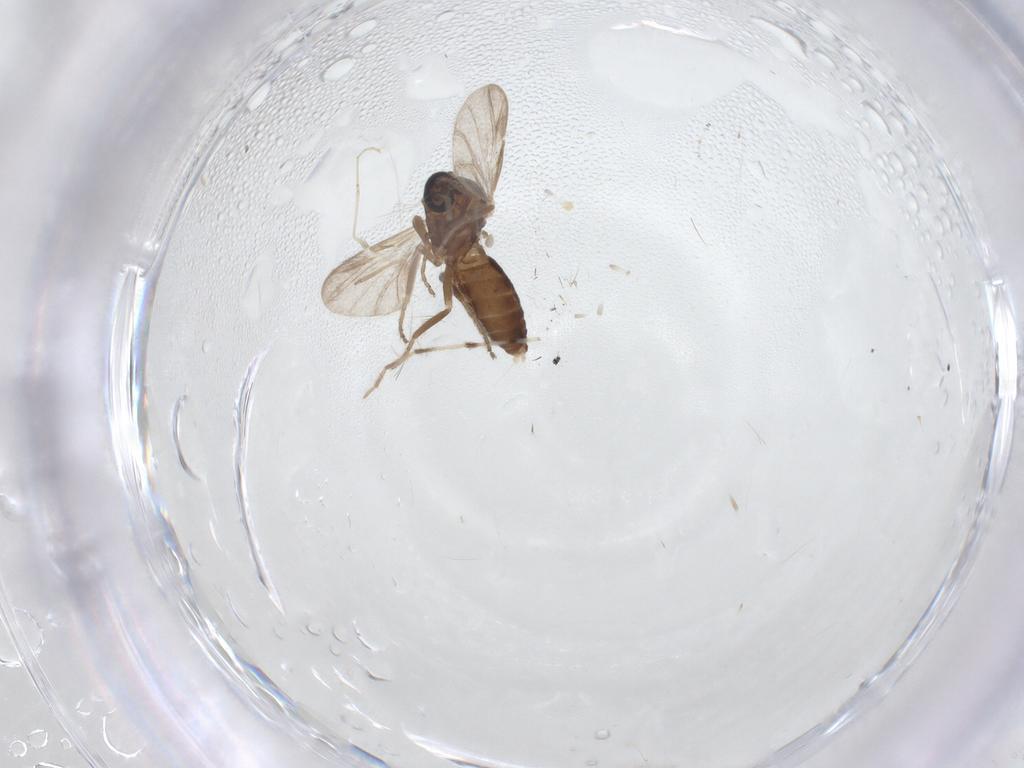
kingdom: Animalia
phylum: Arthropoda
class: Insecta
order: Diptera
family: Ceratopogonidae
